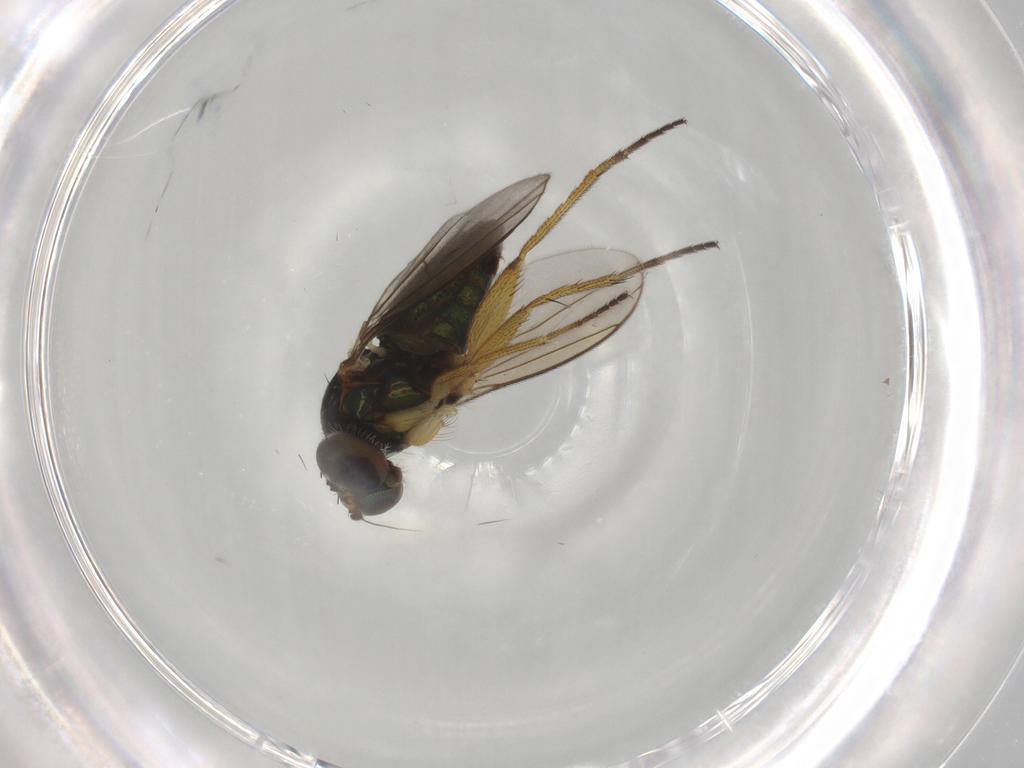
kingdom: Animalia
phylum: Arthropoda
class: Insecta
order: Diptera
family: Dolichopodidae
